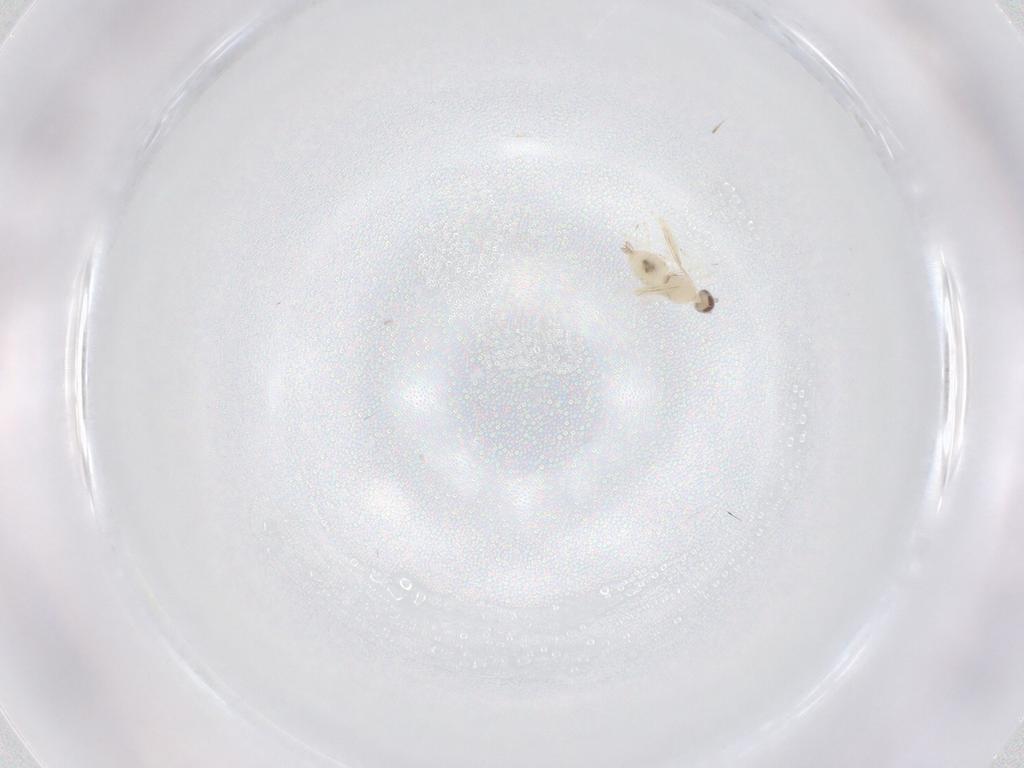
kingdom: Animalia
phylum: Arthropoda
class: Insecta
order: Diptera
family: Cecidomyiidae
